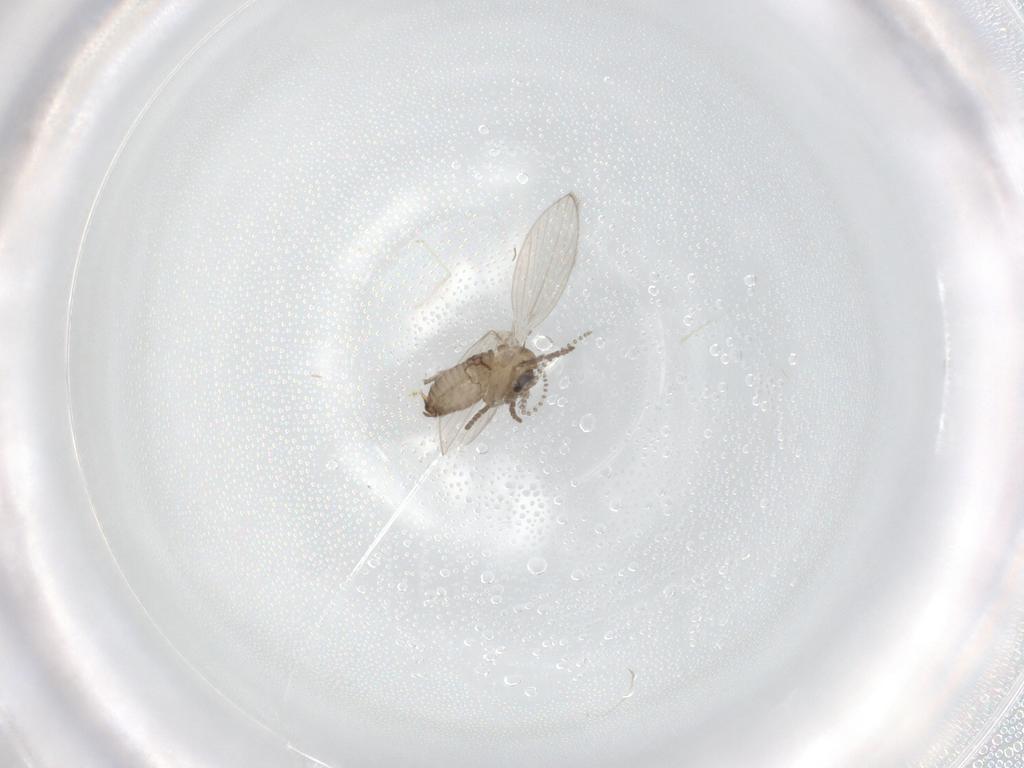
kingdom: Animalia
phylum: Arthropoda
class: Insecta
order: Diptera
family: Psychodidae
